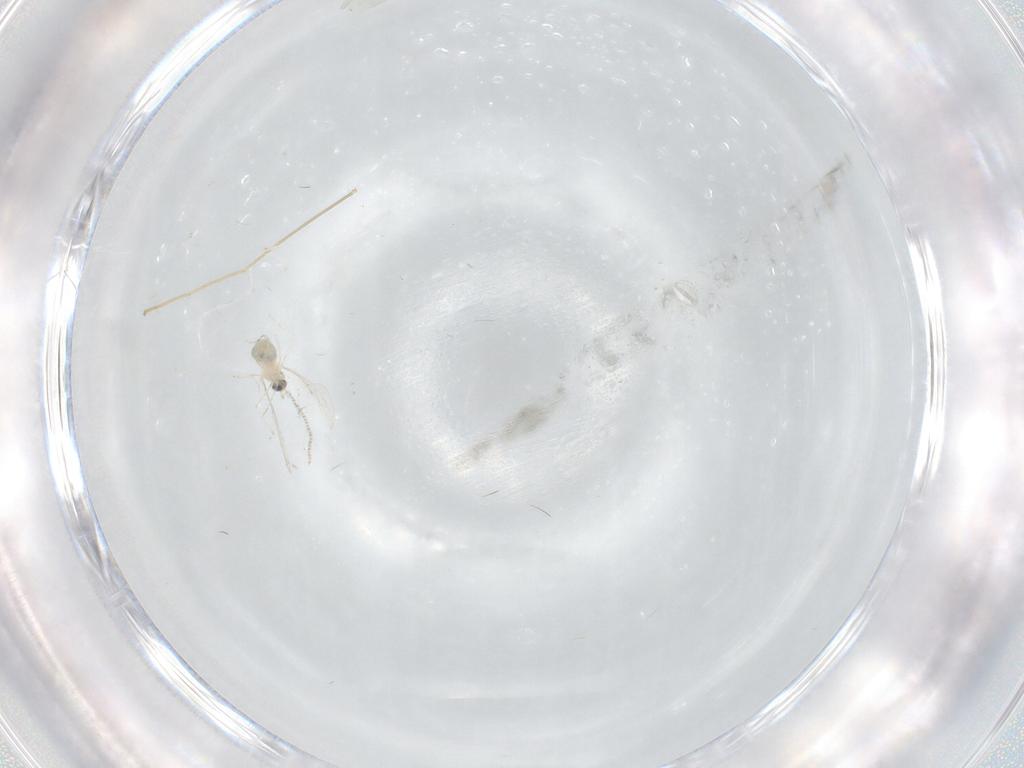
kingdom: Animalia
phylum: Arthropoda
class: Insecta
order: Diptera
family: Cecidomyiidae
